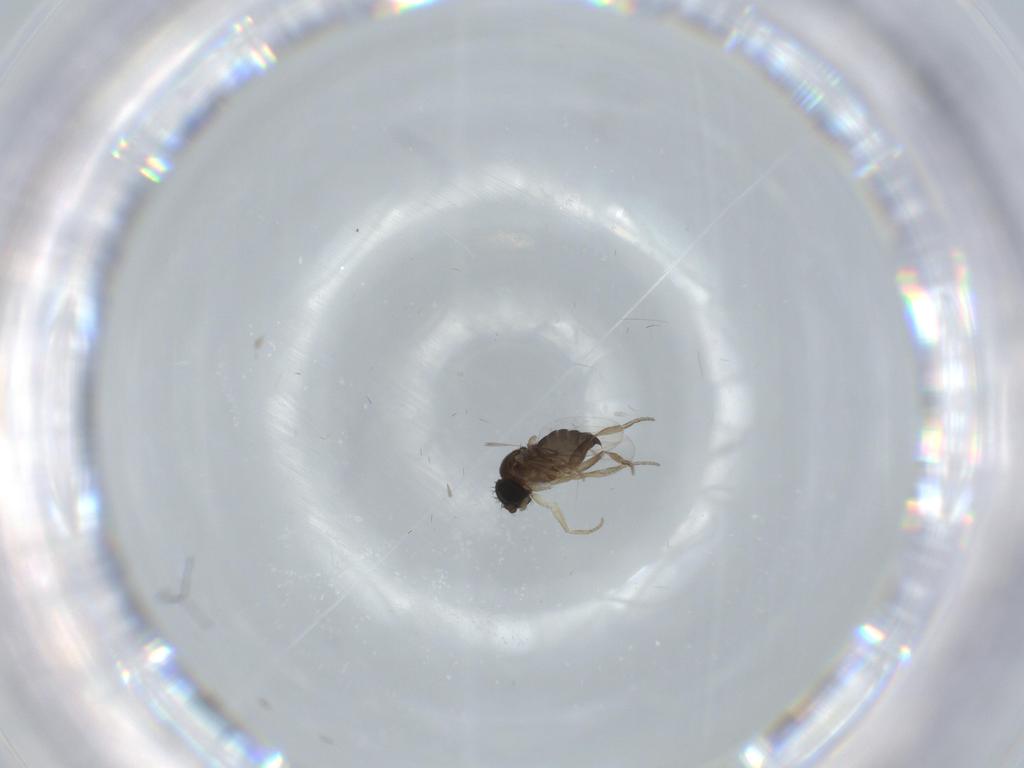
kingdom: Animalia
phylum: Arthropoda
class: Insecta
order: Diptera
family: Phoridae
